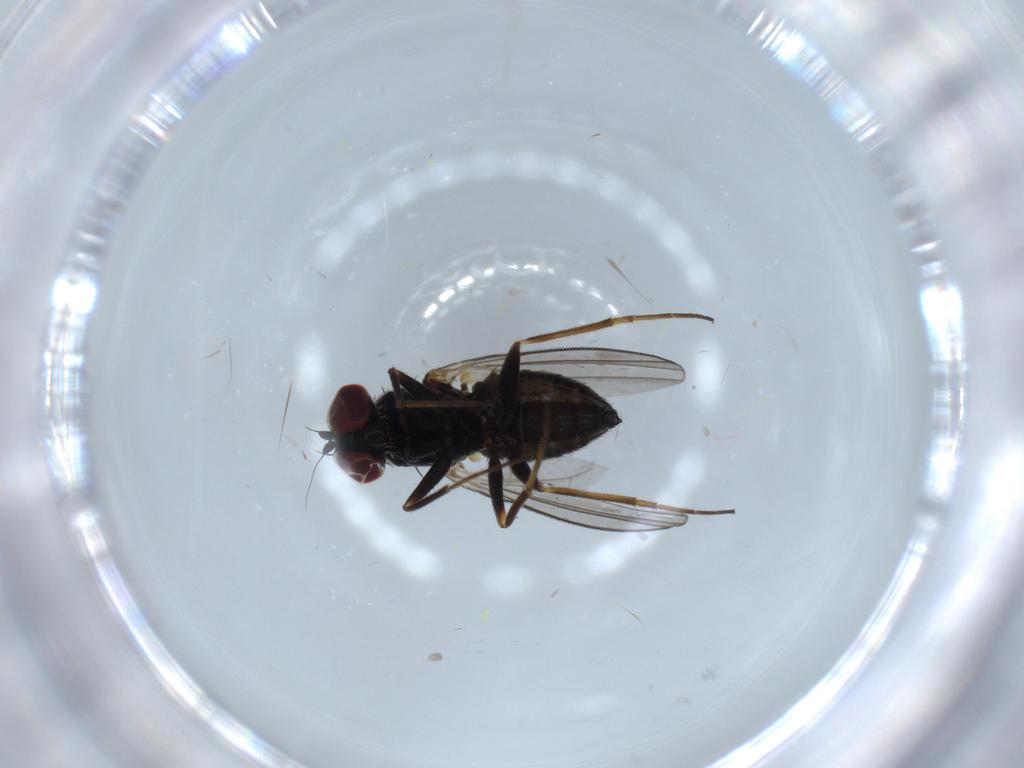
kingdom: Animalia
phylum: Arthropoda
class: Insecta
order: Diptera
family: Dolichopodidae
